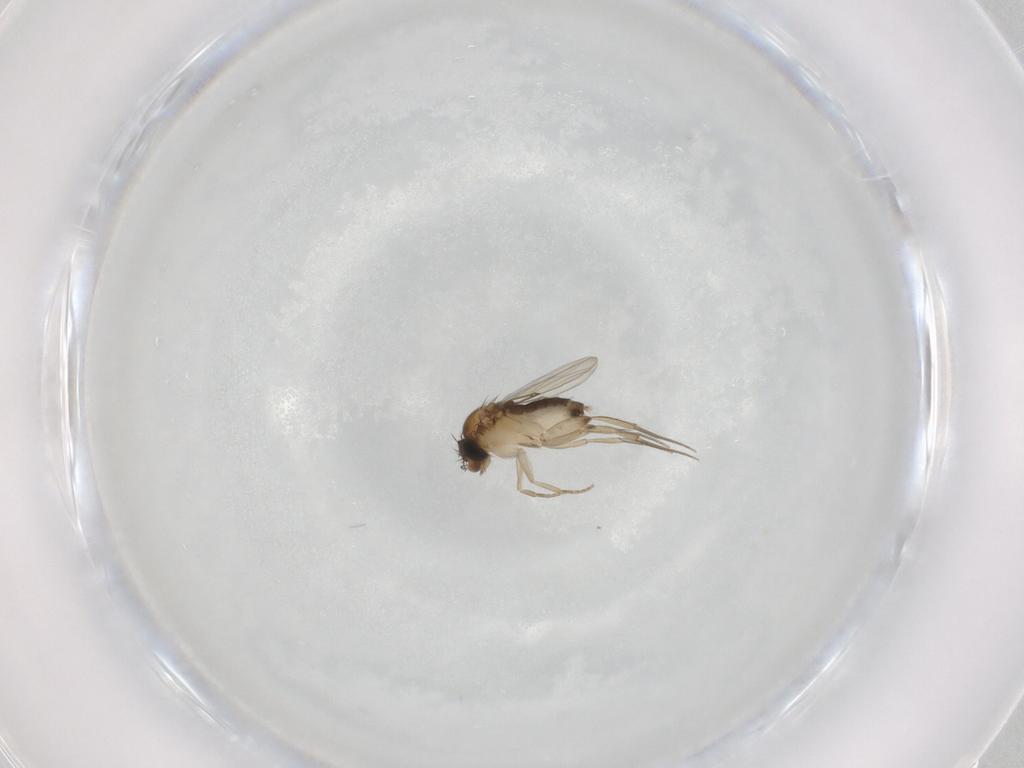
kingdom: Animalia
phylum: Arthropoda
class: Insecta
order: Diptera
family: Phoridae
